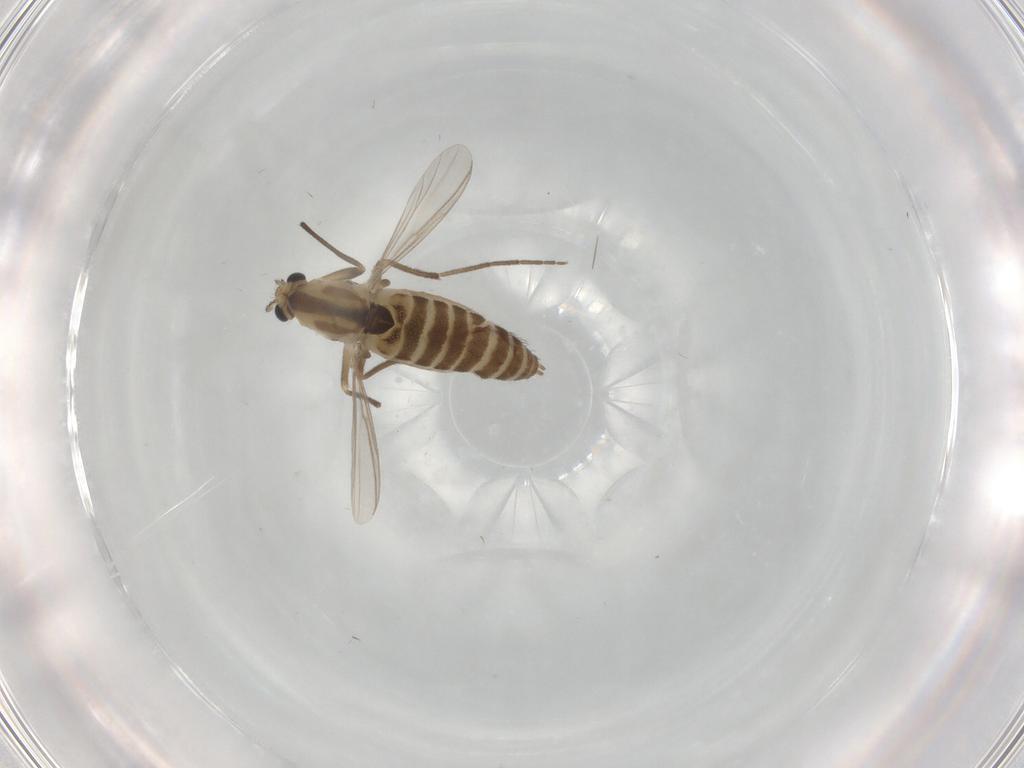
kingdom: Animalia
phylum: Arthropoda
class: Insecta
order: Diptera
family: Chironomidae
